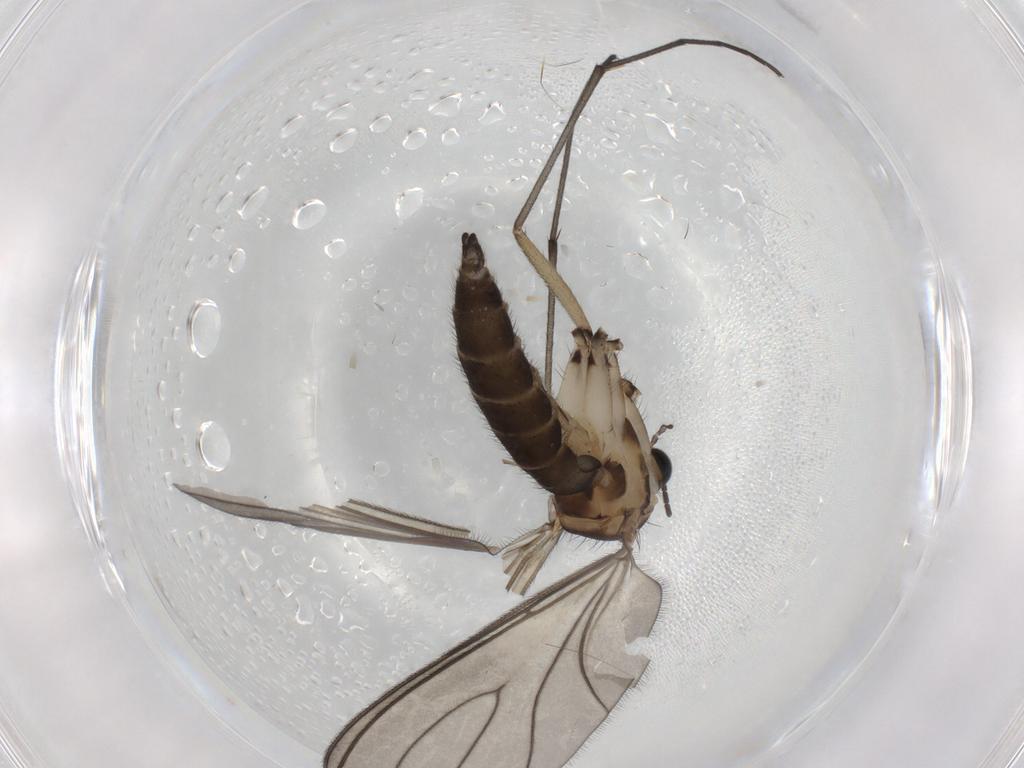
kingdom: Animalia
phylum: Arthropoda
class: Insecta
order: Diptera
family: Sciaridae
